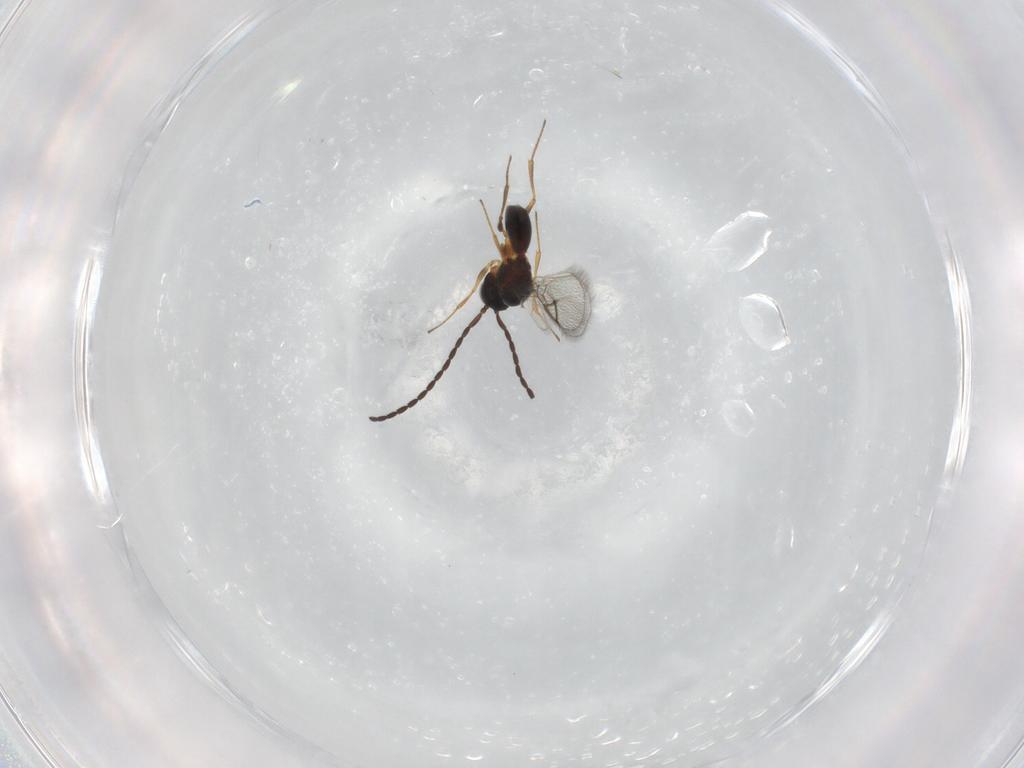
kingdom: Animalia
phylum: Arthropoda
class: Insecta
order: Hymenoptera
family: Figitidae
